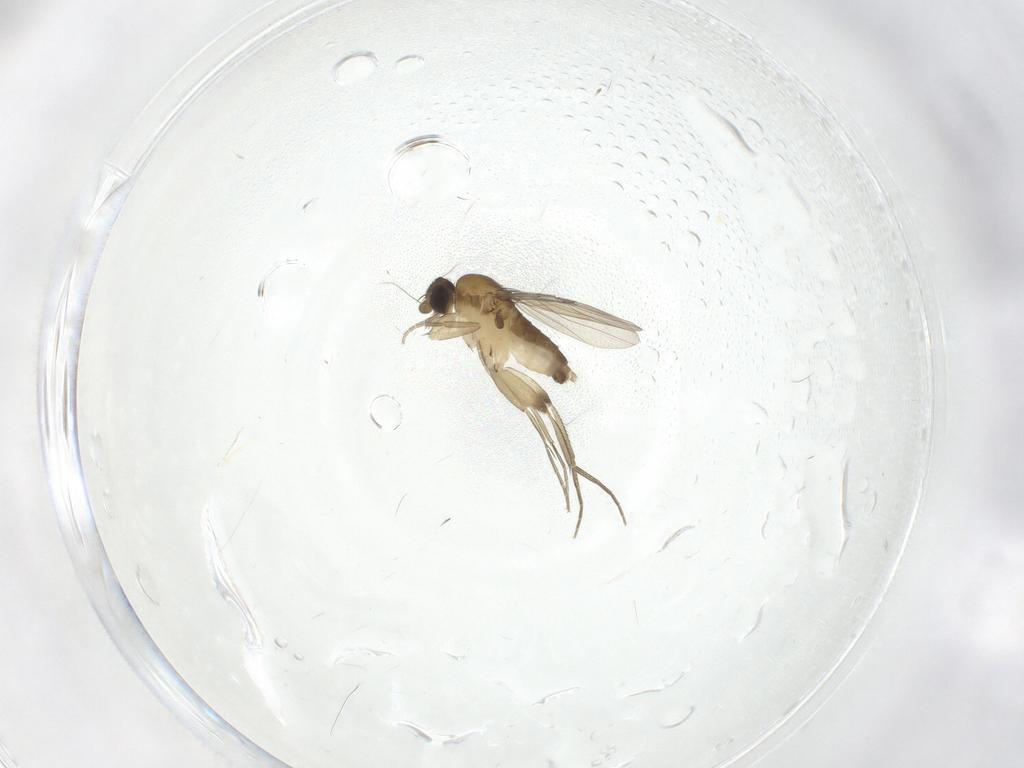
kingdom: Animalia
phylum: Arthropoda
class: Insecta
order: Diptera
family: Phoridae
